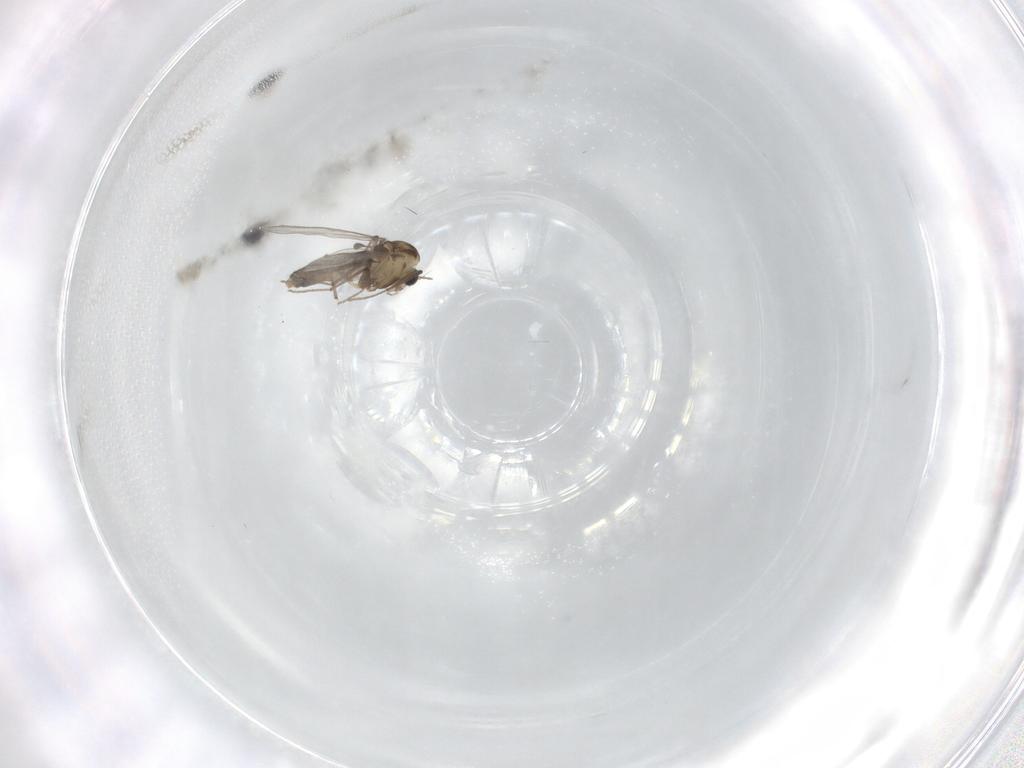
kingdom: Animalia
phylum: Arthropoda
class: Insecta
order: Diptera
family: Chironomidae
